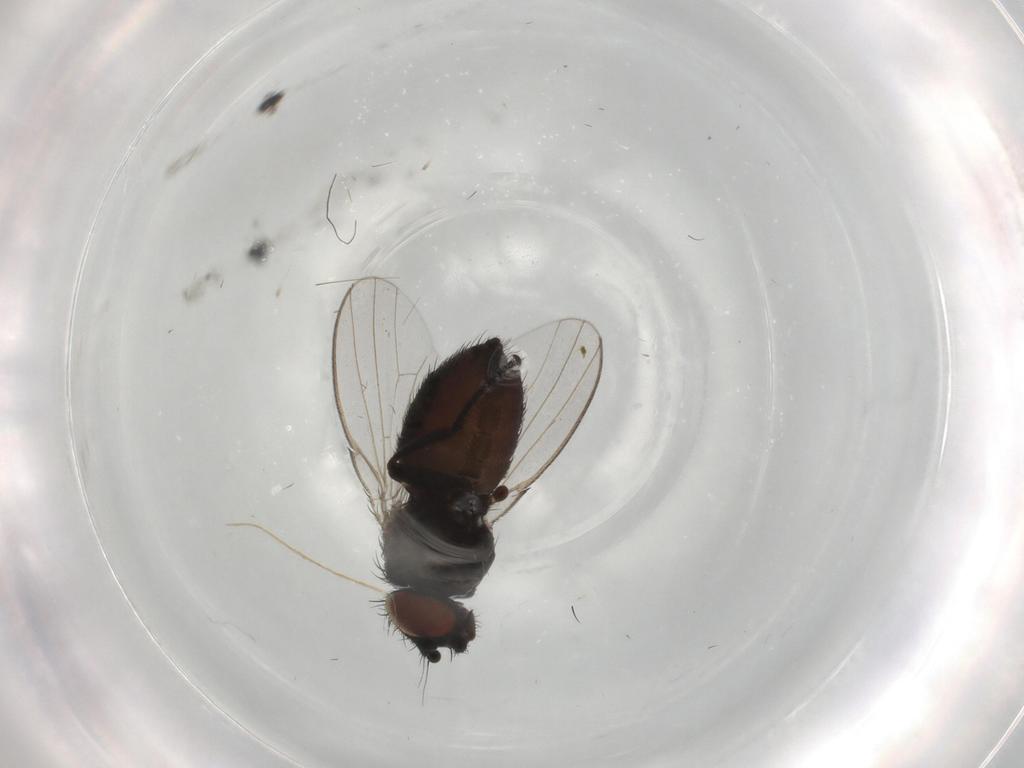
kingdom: Animalia
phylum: Arthropoda
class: Insecta
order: Diptera
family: Milichiidae
